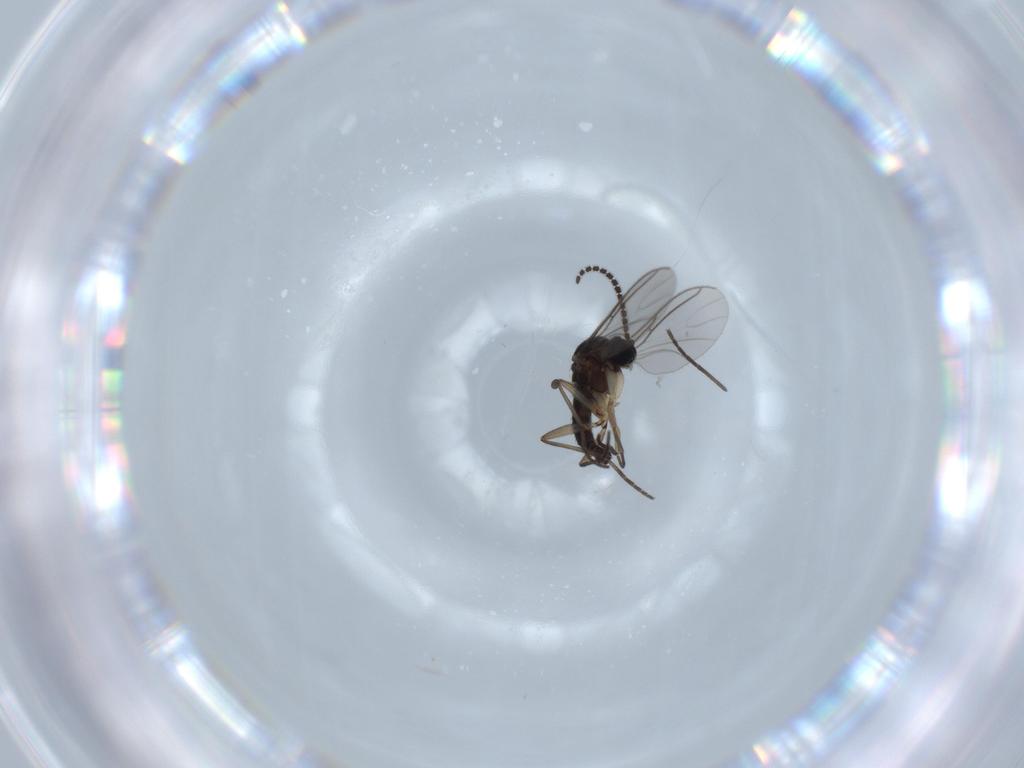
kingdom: Animalia
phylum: Arthropoda
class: Insecta
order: Diptera
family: Sciaridae
